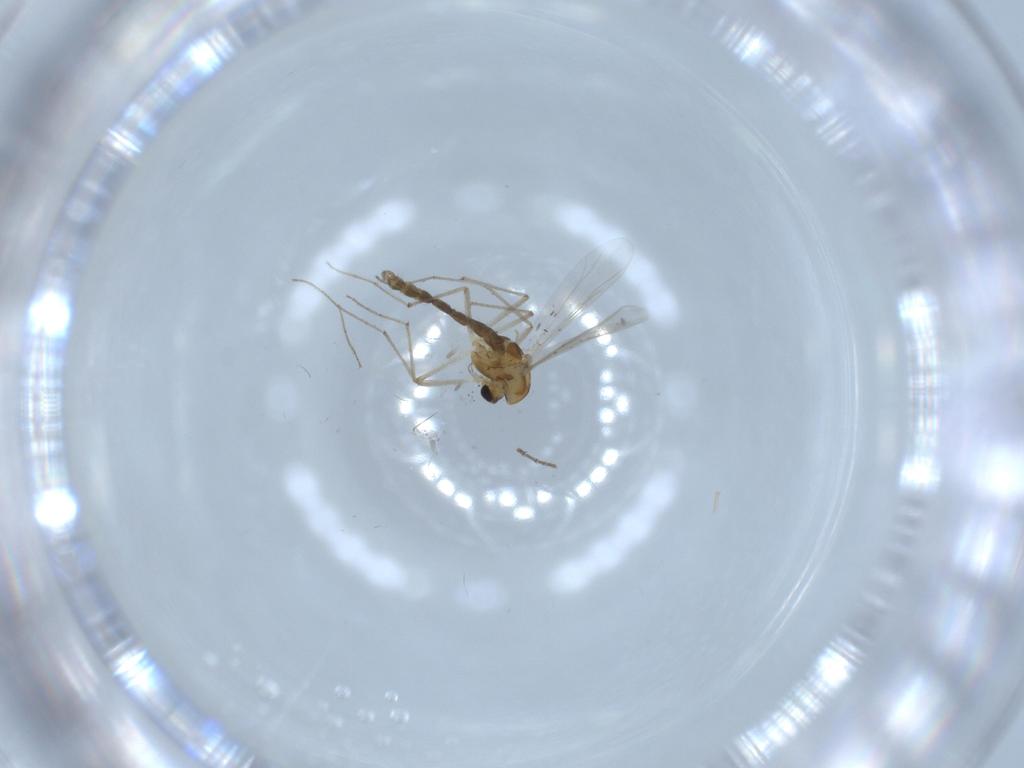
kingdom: Animalia
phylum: Arthropoda
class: Insecta
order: Diptera
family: Chironomidae
